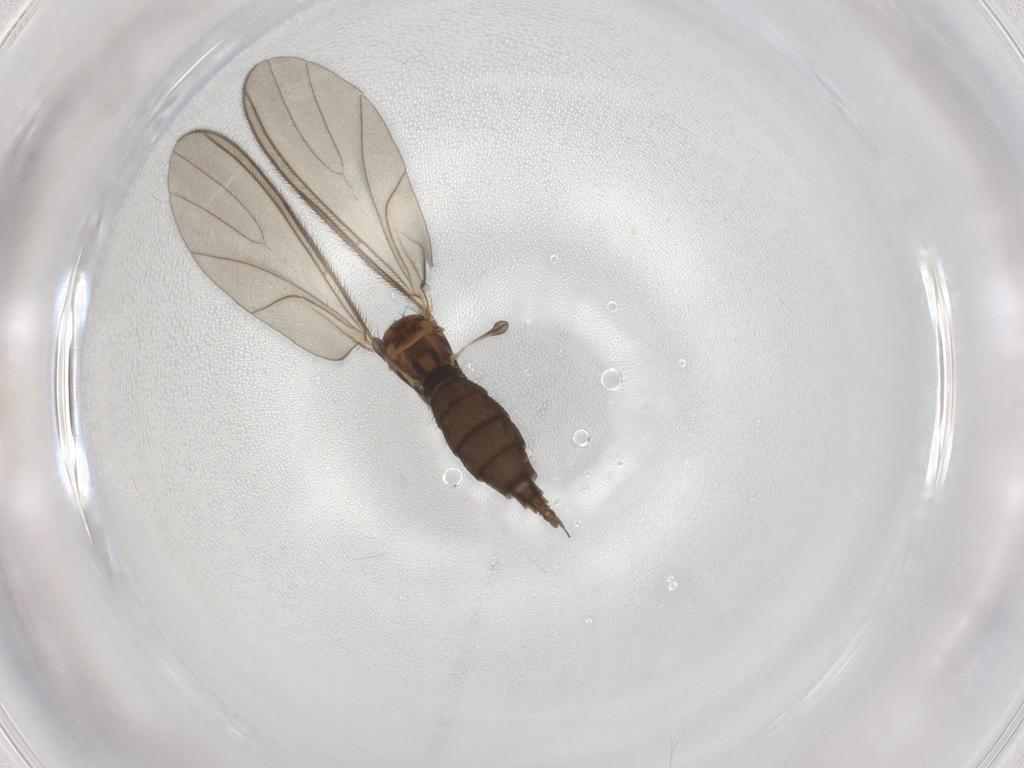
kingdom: Animalia
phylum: Arthropoda
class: Insecta
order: Diptera
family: Sciaridae
